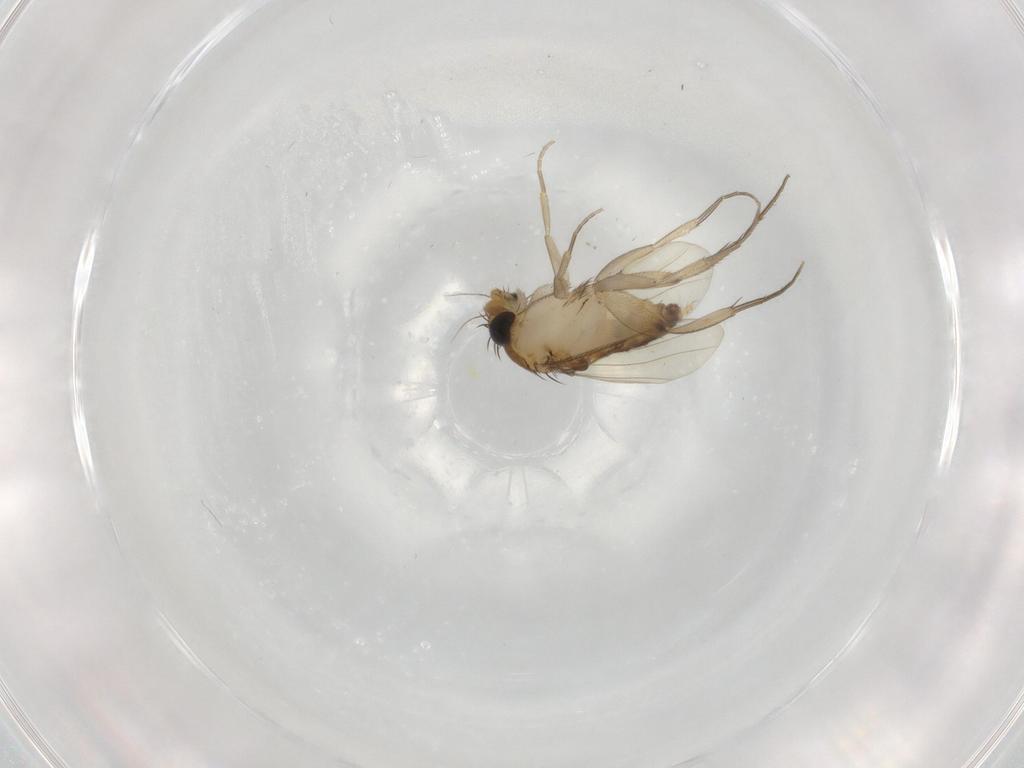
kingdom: Animalia
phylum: Arthropoda
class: Insecta
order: Diptera
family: Phoridae
